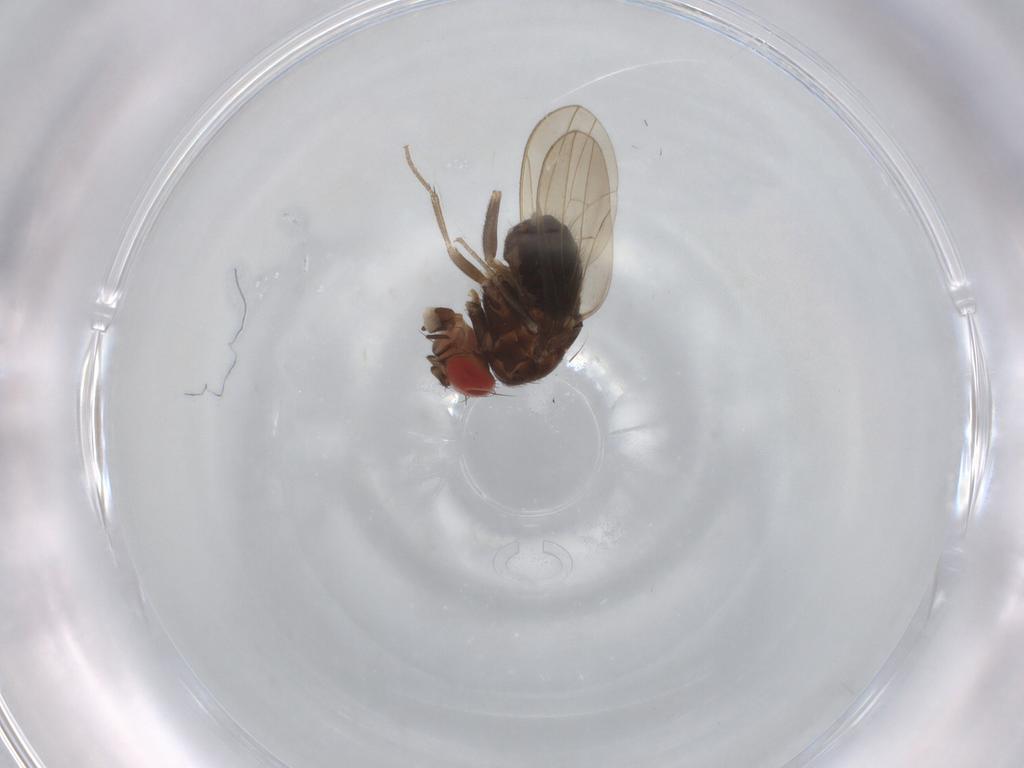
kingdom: Animalia
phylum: Arthropoda
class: Insecta
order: Diptera
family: Drosophilidae
